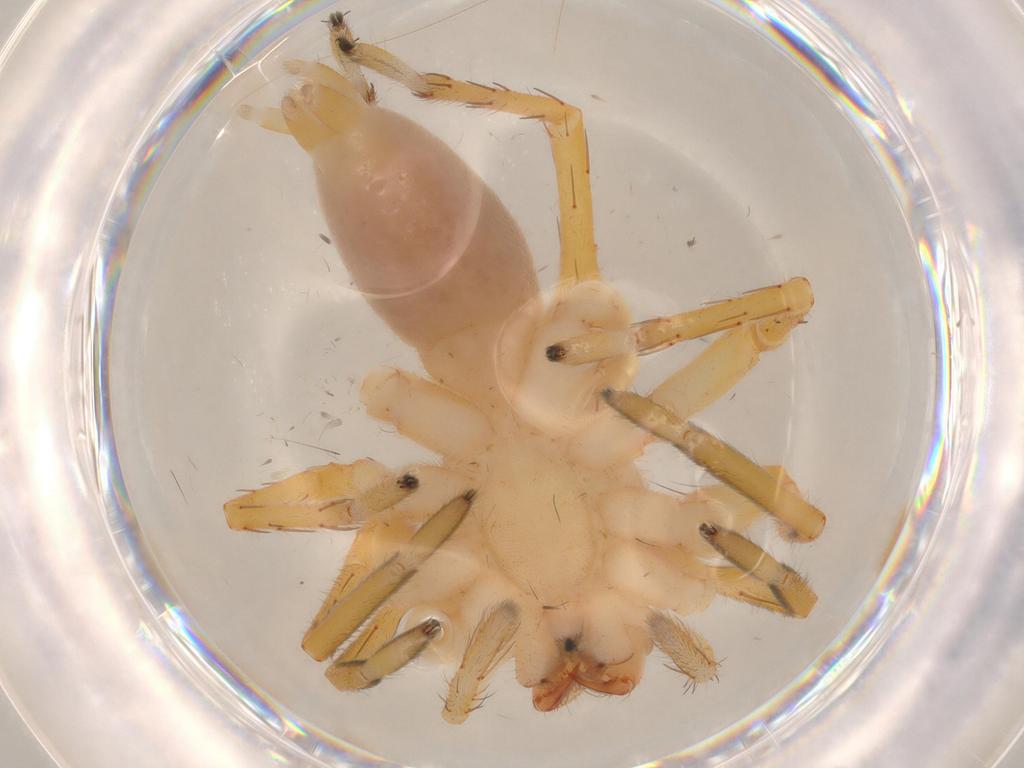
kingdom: Animalia
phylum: Arthropoda
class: Arachnida
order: Araneae
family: Clubionidae
